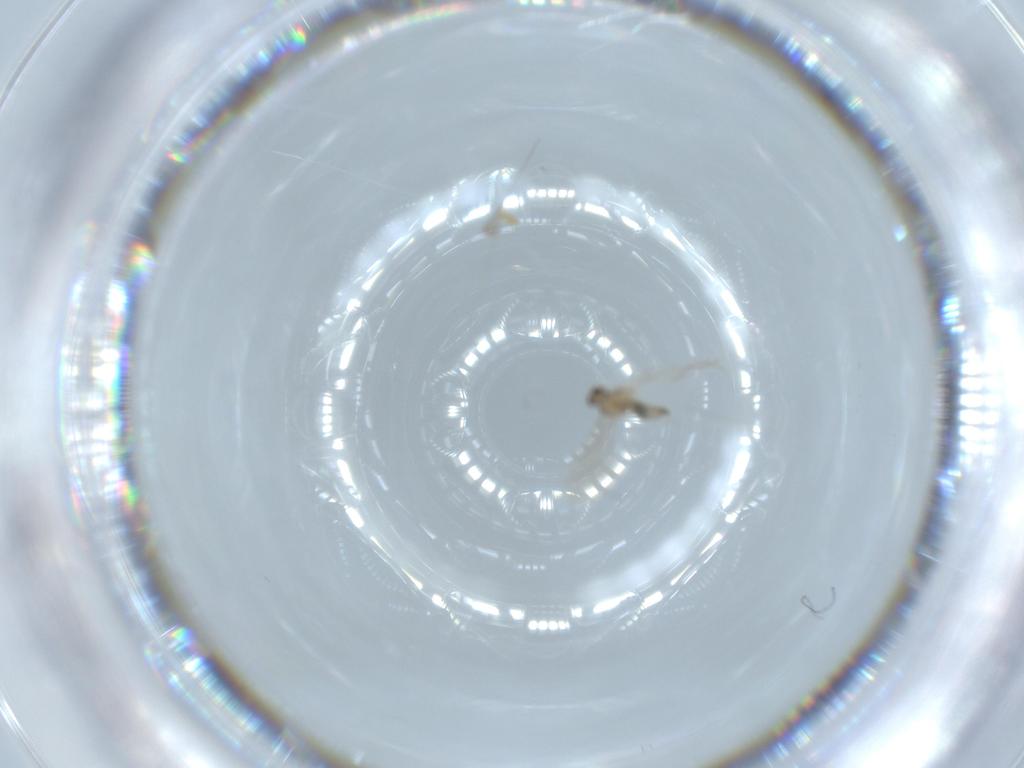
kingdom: Animalia
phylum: Arthropoda
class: Insecta
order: Diptera
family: Cecidomyiidae
